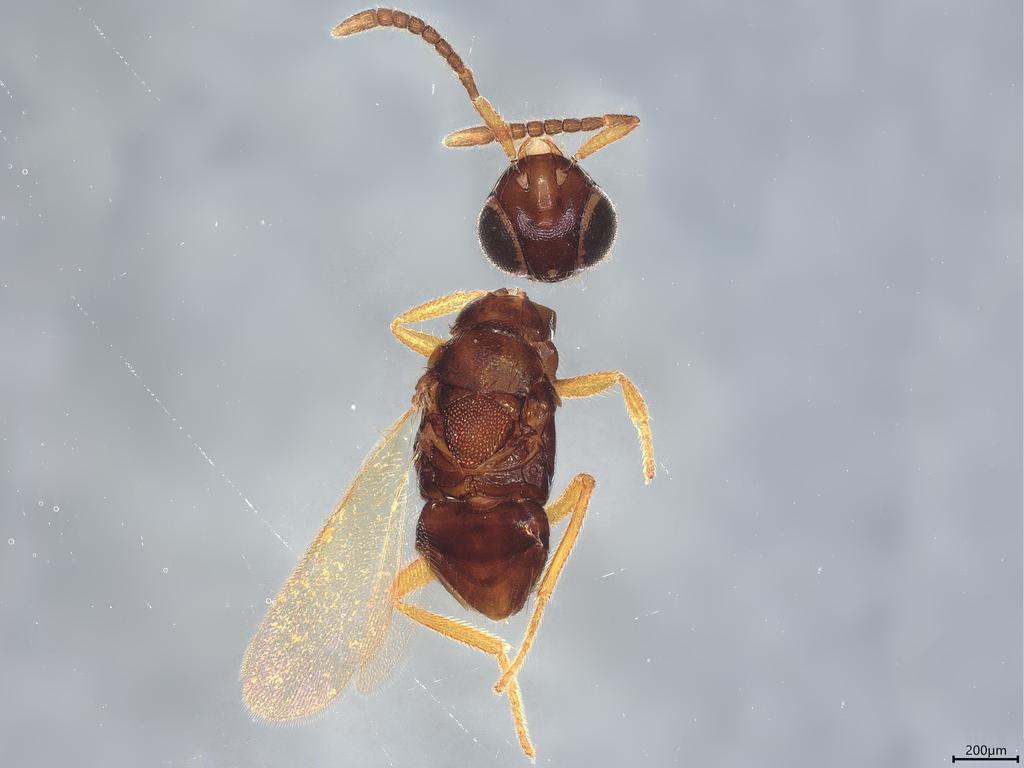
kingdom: Animalia
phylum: Arthropoda
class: Insecta
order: Hymenoptera
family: Encyrtidae
